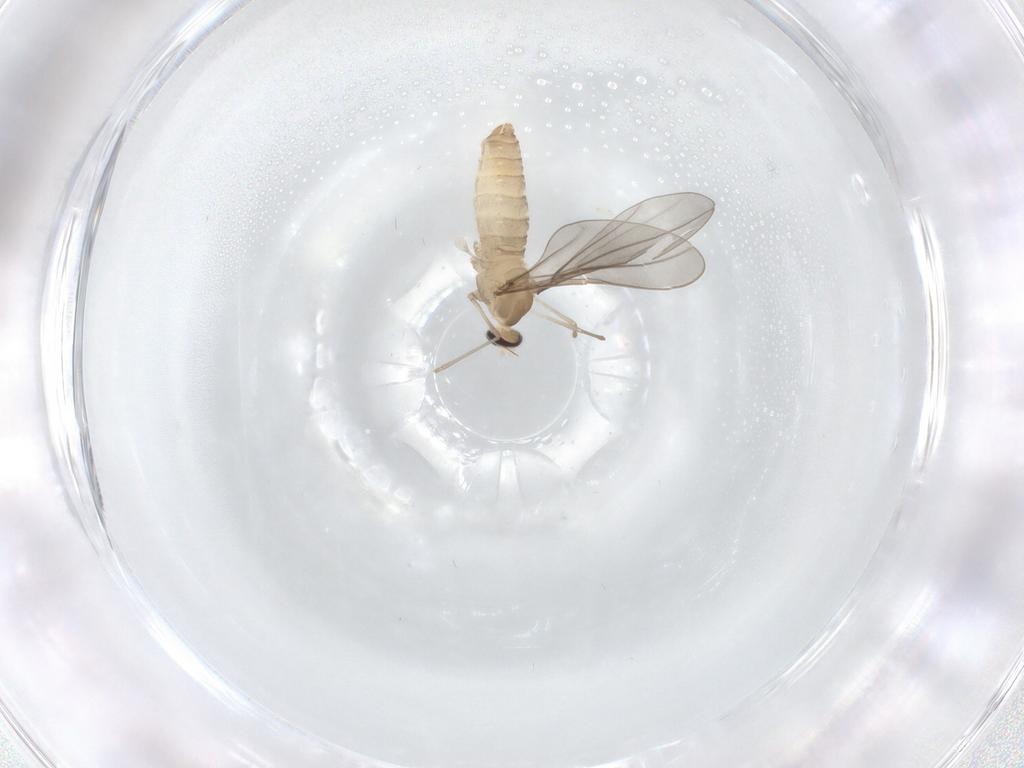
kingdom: Animalia
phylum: Arthropoda
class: Insecta
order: Diptera
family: Cecidomyiidae
